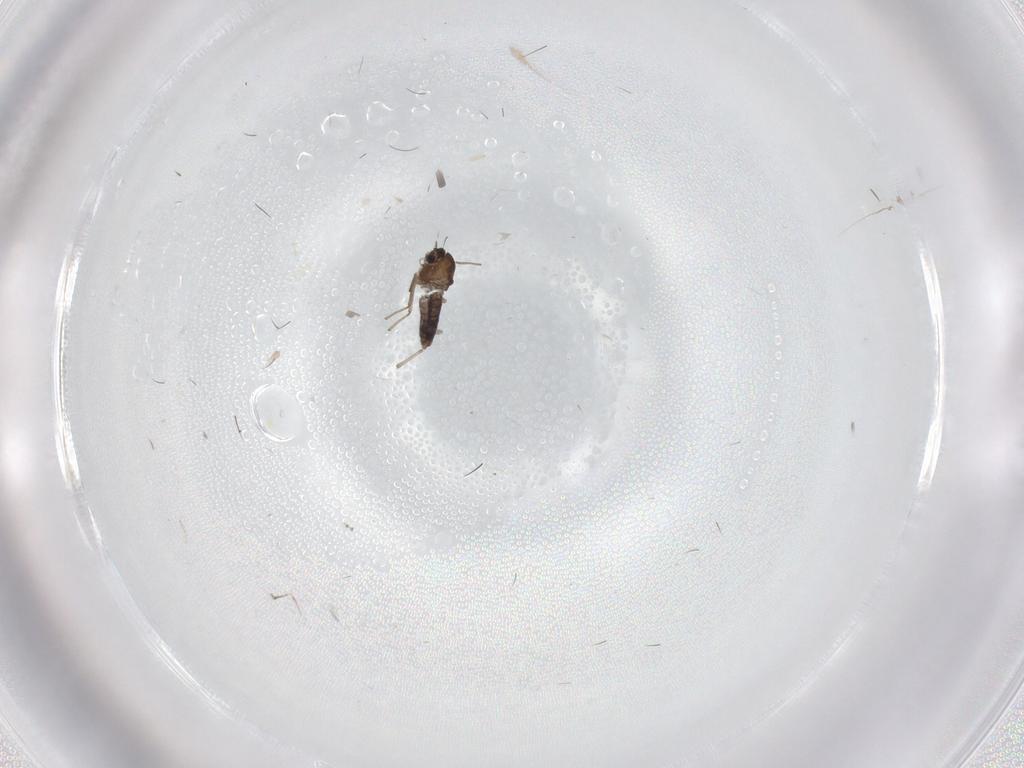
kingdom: Animalia
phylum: Arthropoda
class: Insecta
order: Diptera
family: Chironomidae
